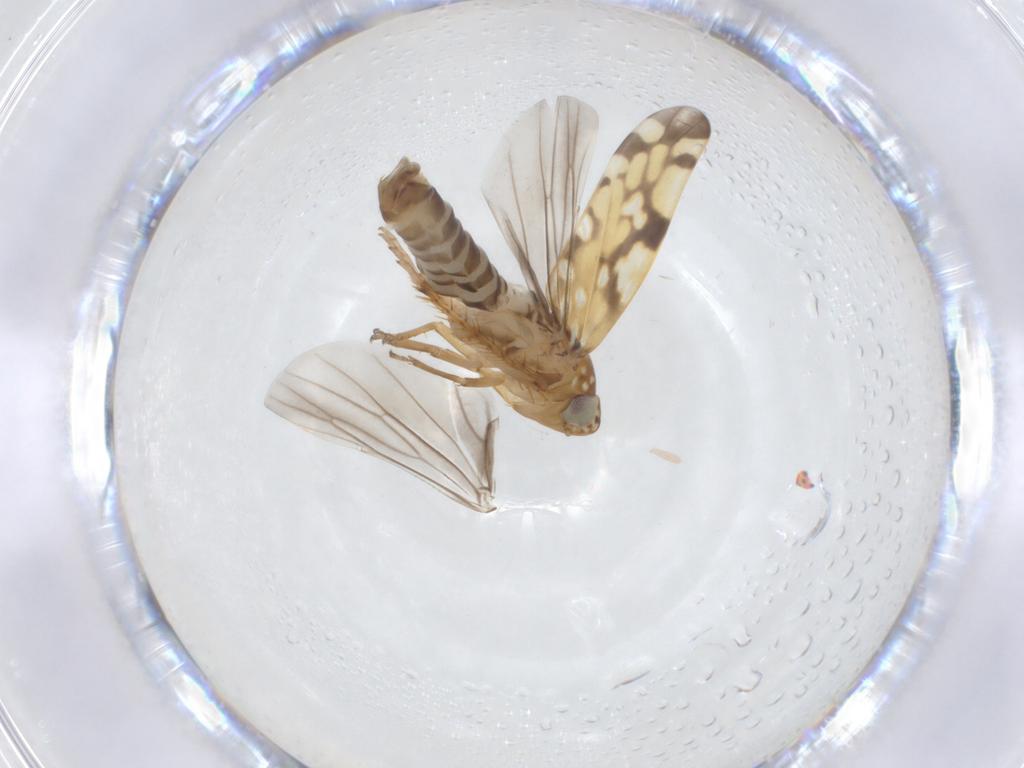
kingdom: Animalia
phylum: Arthropoda
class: Insecta
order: Hemiptera
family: Cicadellidae
